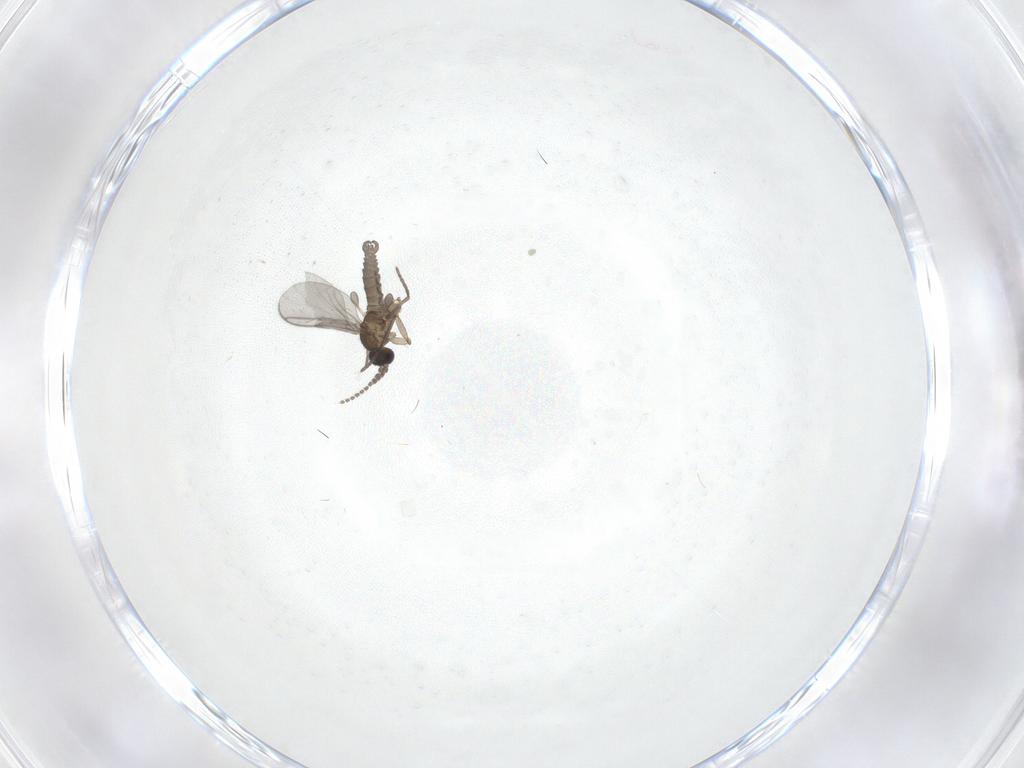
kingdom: Animalia
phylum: Arthropoda
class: Insecta
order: Diptera
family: Sciaridae
